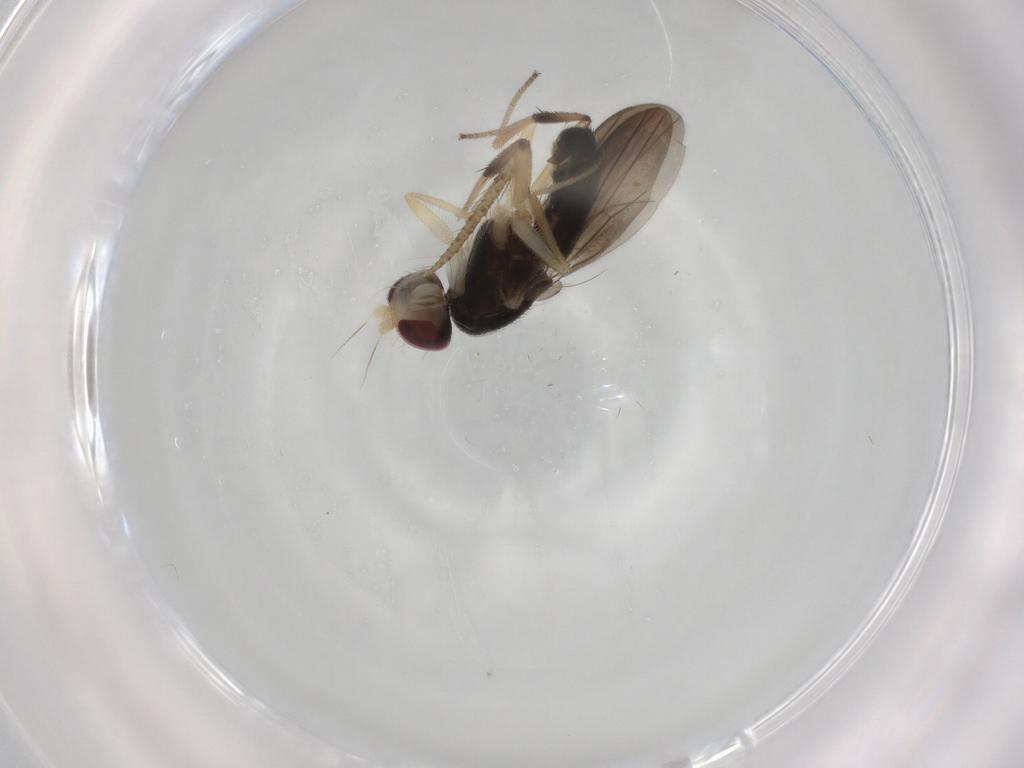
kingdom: Animalia
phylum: Arthropoda
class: Insecta
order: Diptera
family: Clusiidae
